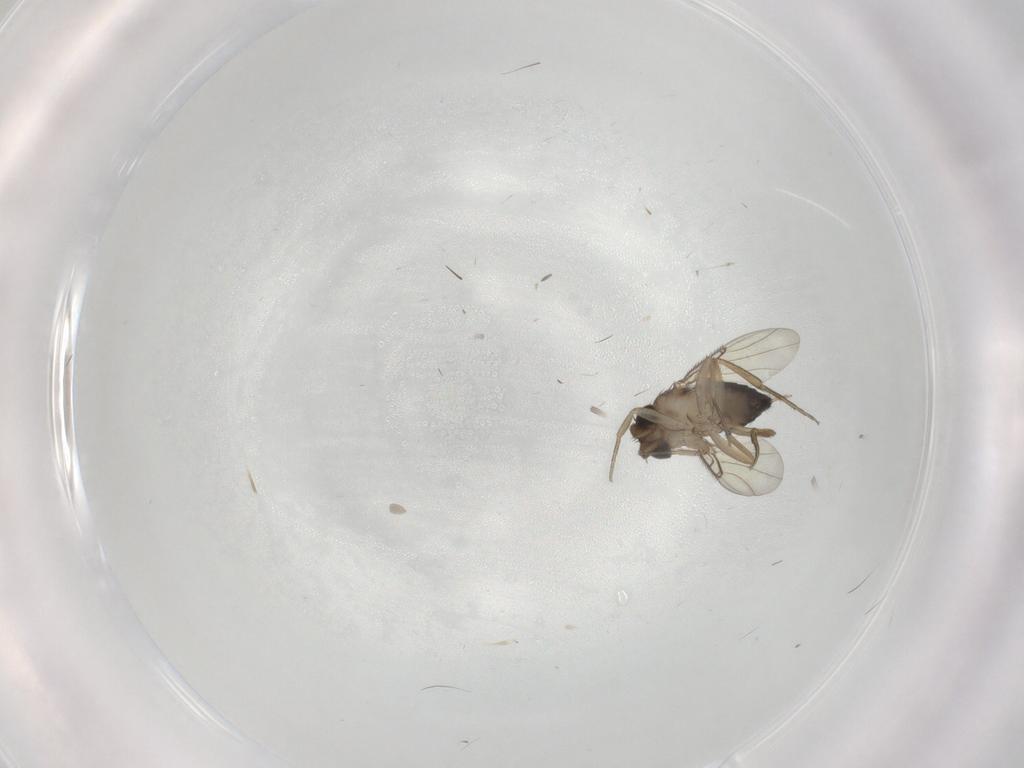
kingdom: Animalia
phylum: Arthropoda
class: Insecta
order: Diptera
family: Phoridae
